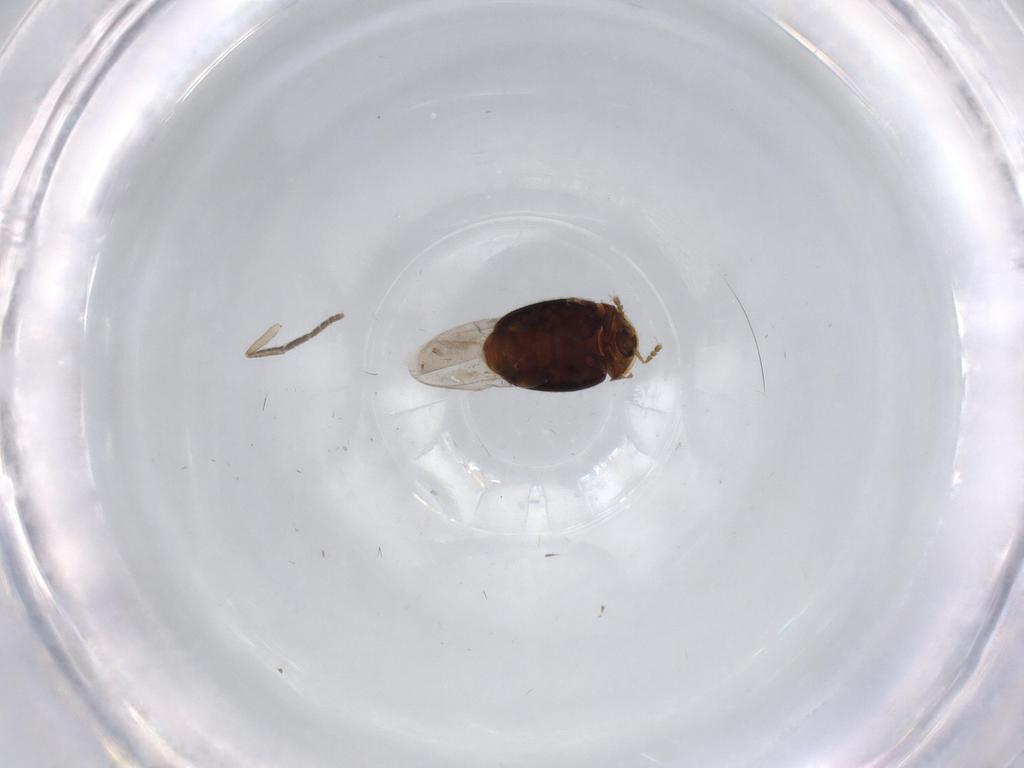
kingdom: Animalia
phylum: Arthropoda
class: Insecta
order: Coleoptera
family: Corylophidae
